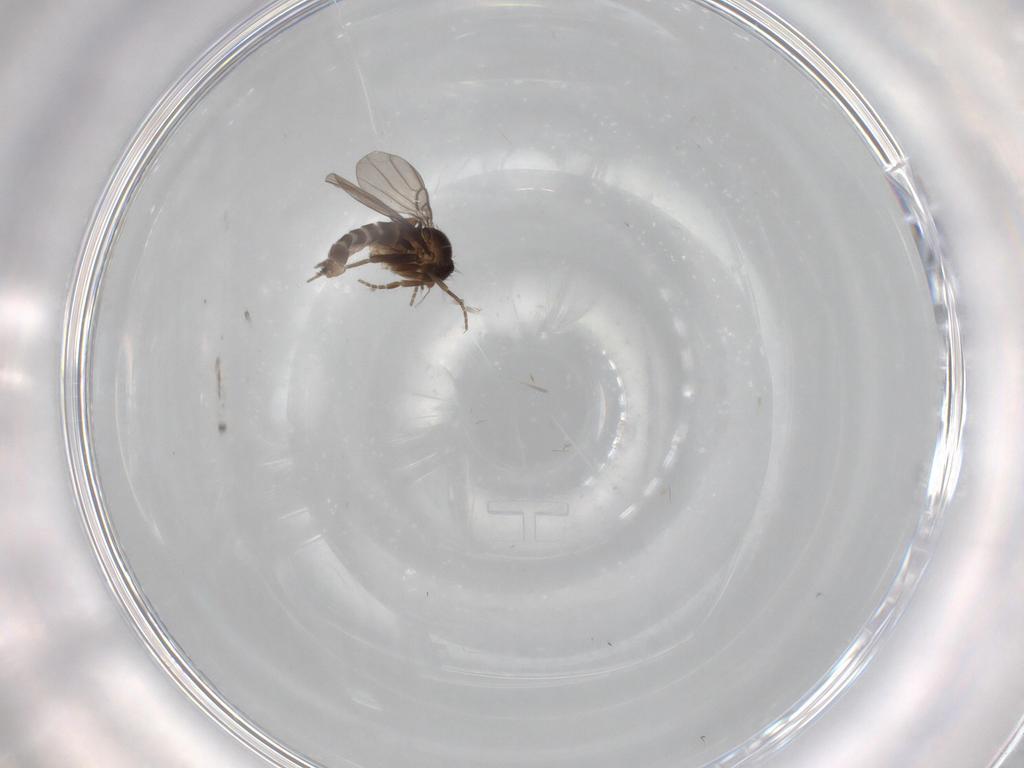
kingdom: Animalia
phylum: Arthropoda
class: Insecta
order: Diptera
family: Phoridae
